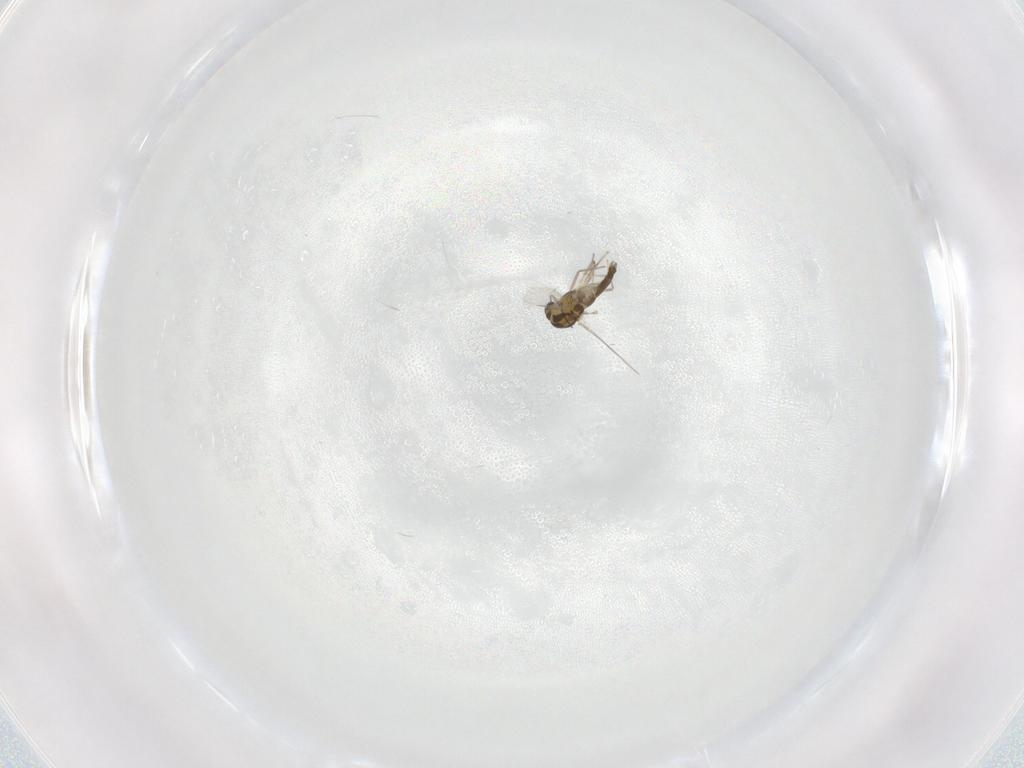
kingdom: Animalia
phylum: Arthropoda
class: Insecta
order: Diptera
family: Chironomidae
